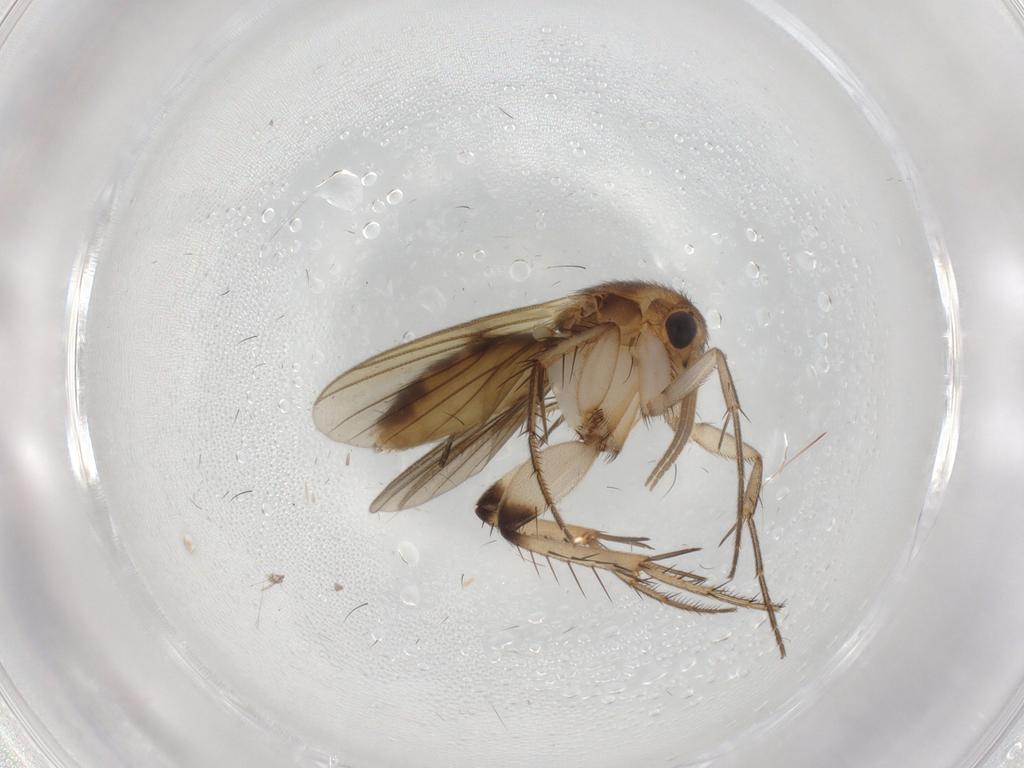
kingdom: Animalia
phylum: Arthropoda
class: Insecta
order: Diptera
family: Mycetophilidae
